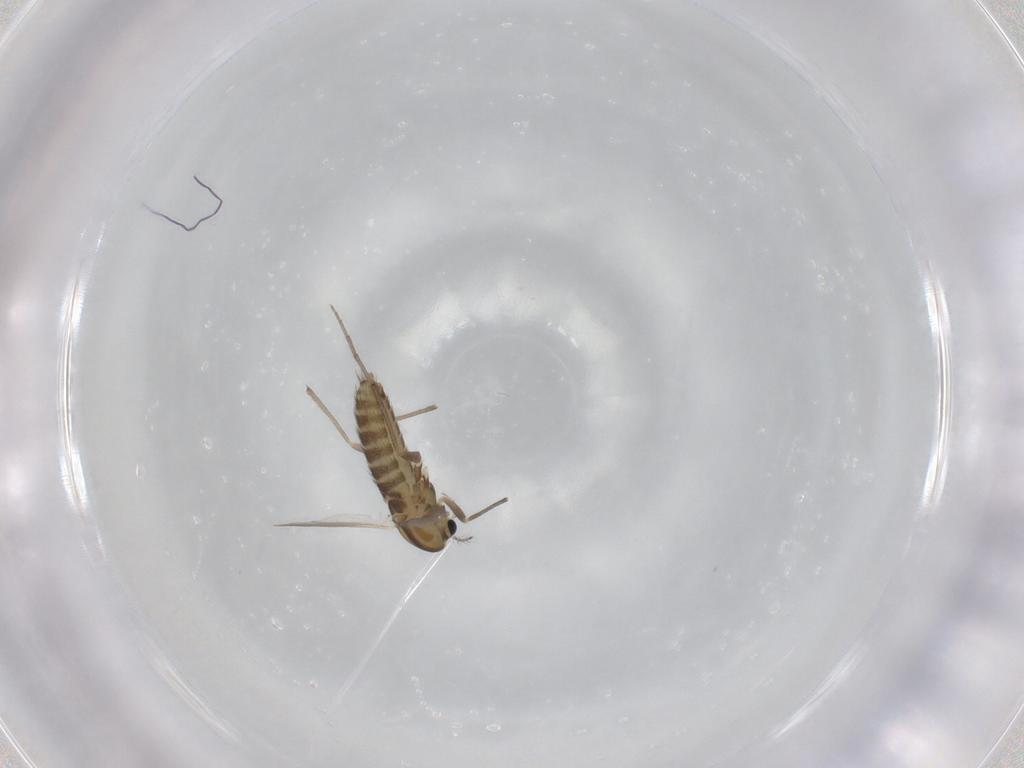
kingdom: Animalia
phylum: Arthropoda
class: Insecta
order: Diptera
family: Chironomidae
